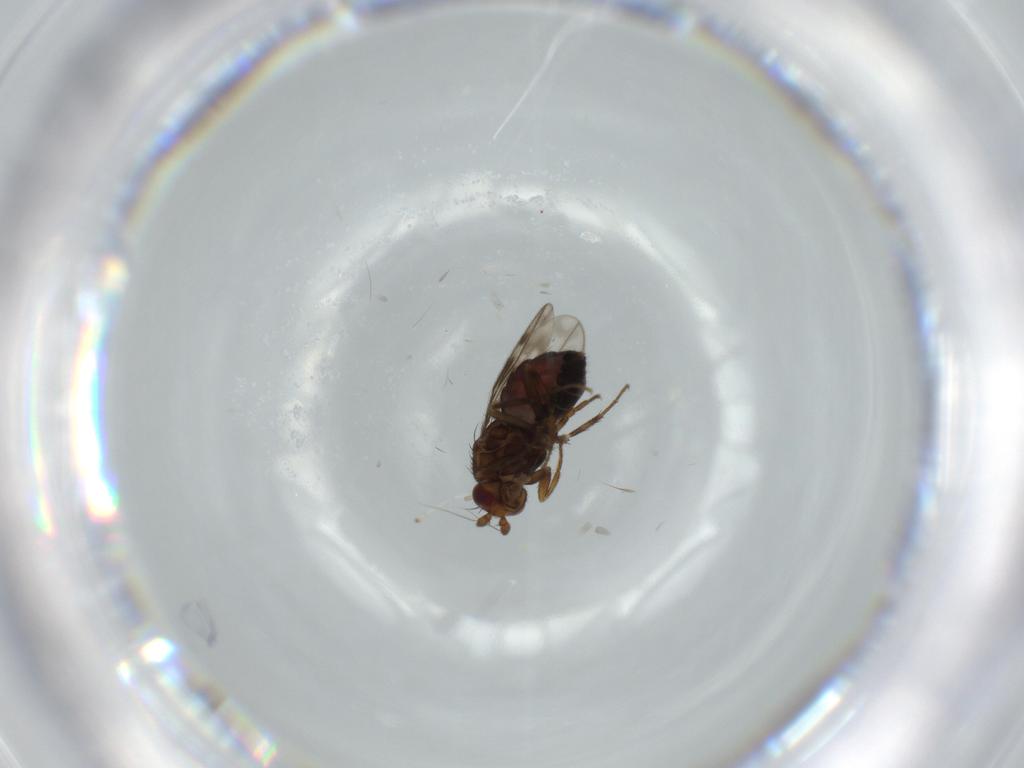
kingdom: Animalia
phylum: Arthropoda
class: Insecta
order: Diptera
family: Sphaeroceridae
